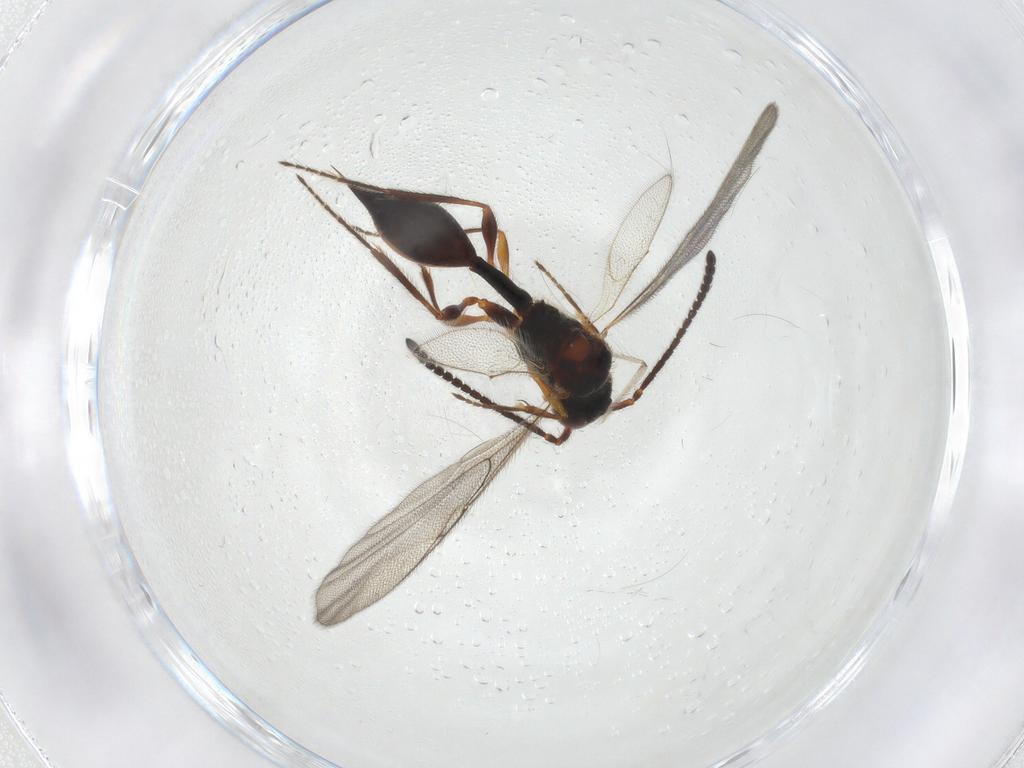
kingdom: Animalia
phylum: Arthropoda
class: Insecta
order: Hymenoptera
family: Diapriidae
